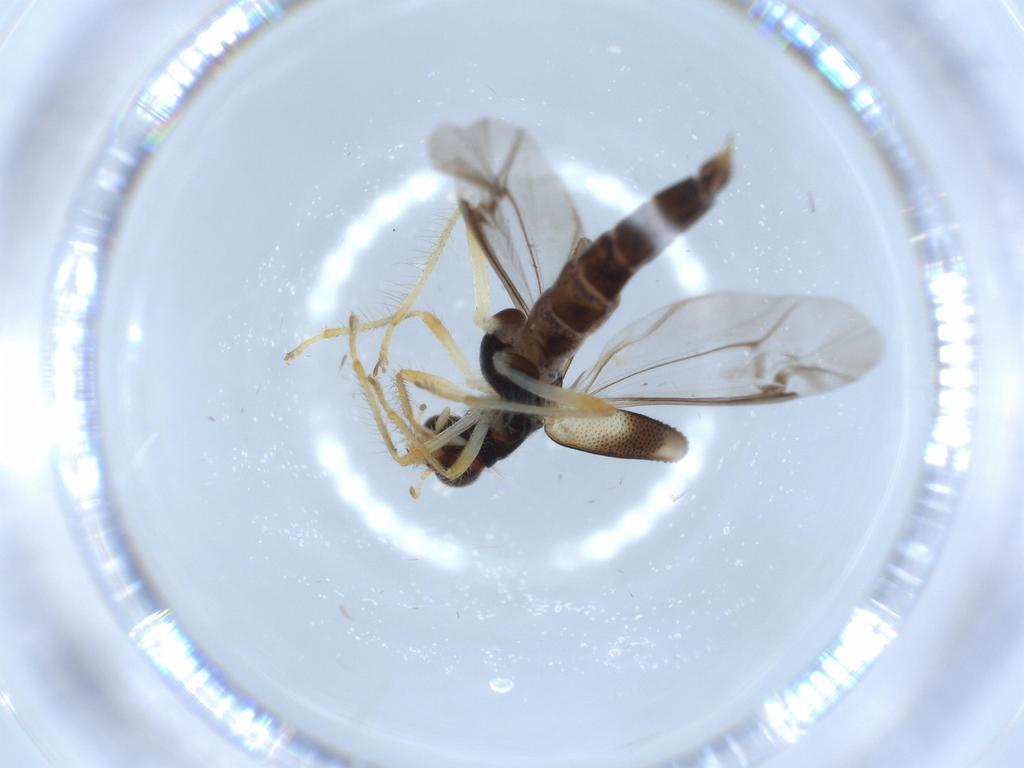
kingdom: Animalia
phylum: Arthropoda
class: Insecta
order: Coleoptera
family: Cleridae
